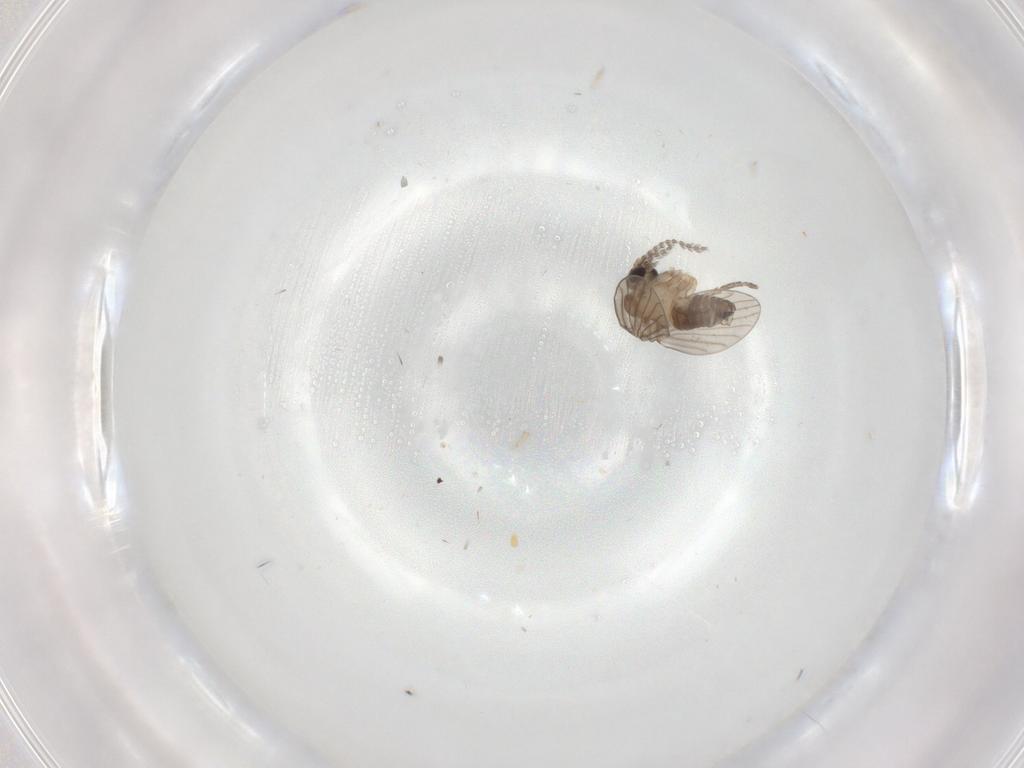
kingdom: Animalia
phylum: Arthropoda
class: Insecta
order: Diptera
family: Cecidomyiidae
